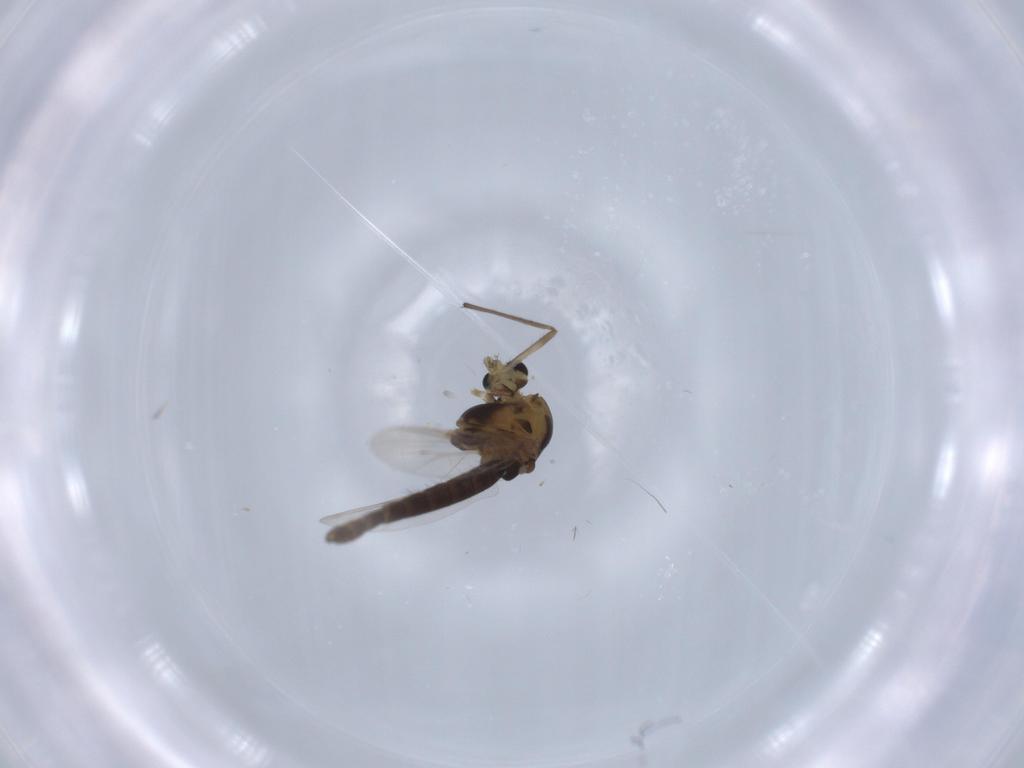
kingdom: Animalia
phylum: Arthropoda
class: Insecta
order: Diptera
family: Chironomidae
